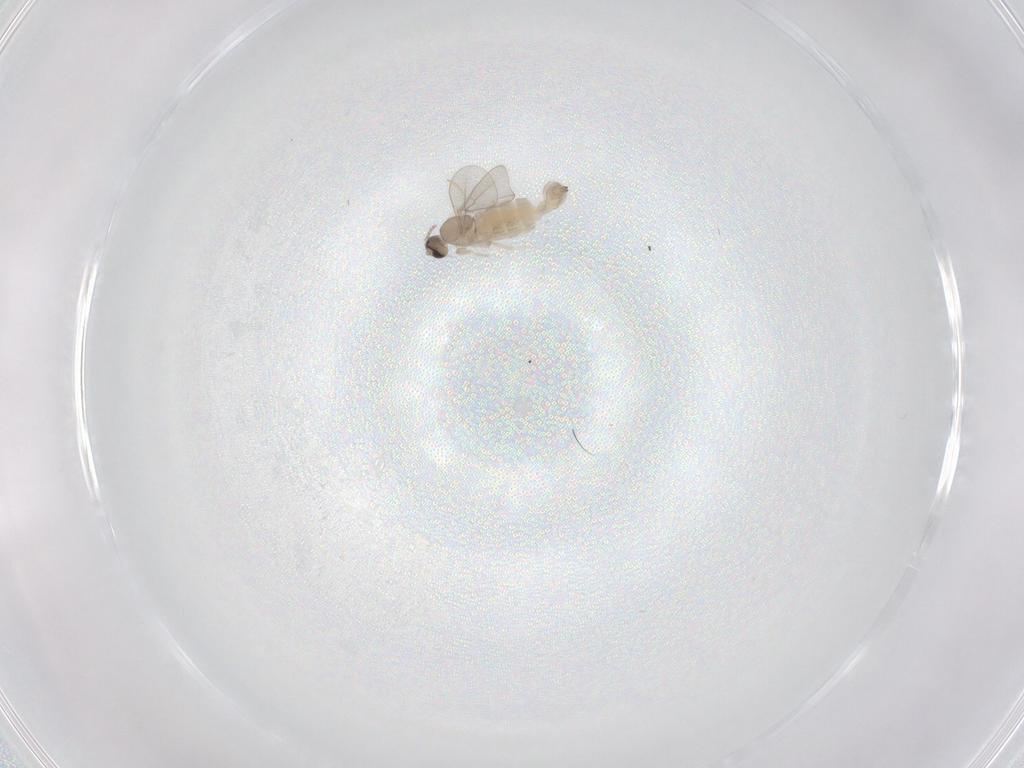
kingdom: Animalia
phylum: Arthropoda
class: Insecta
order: Diptera
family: Cecidomyiidae
